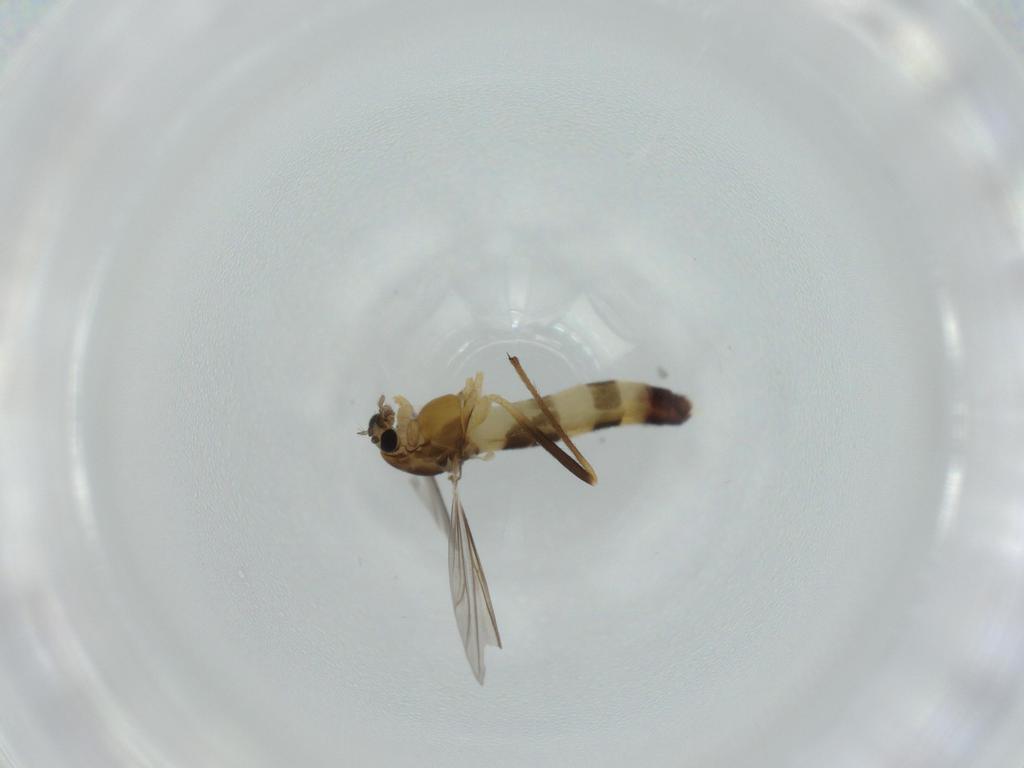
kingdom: Animalia
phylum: Arthropoda
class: Insecta
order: Diptera
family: Chironomidae
